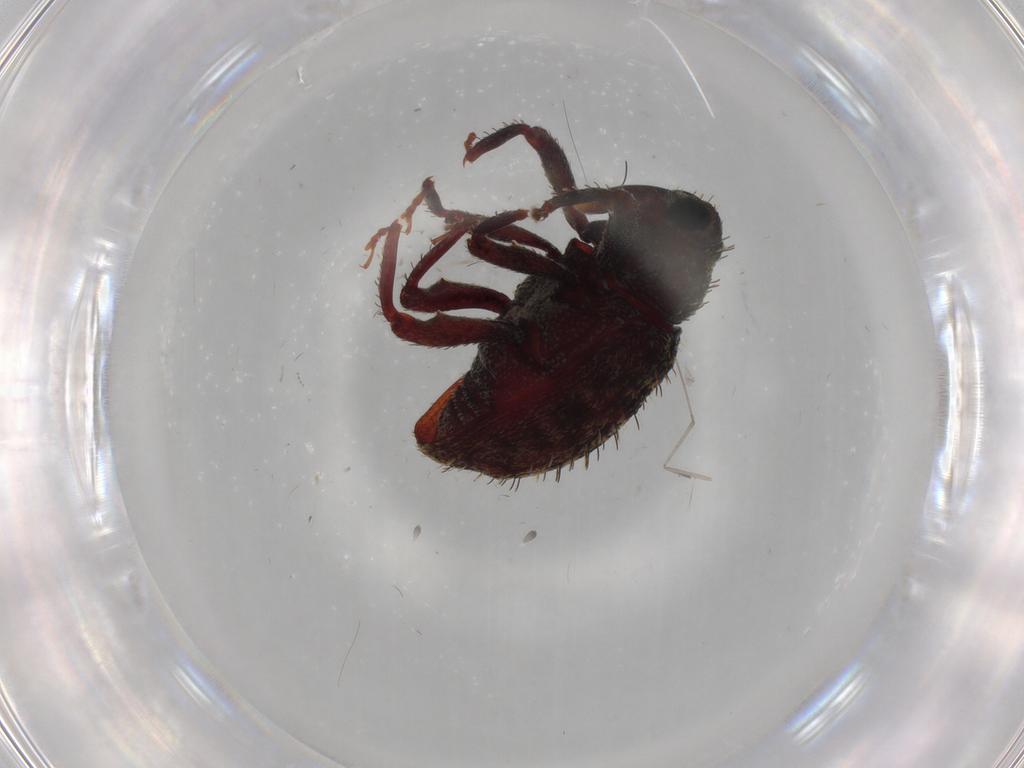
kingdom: Animalia
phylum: Arthropoda
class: Insecta
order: Coleoptera
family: Curculionidae
